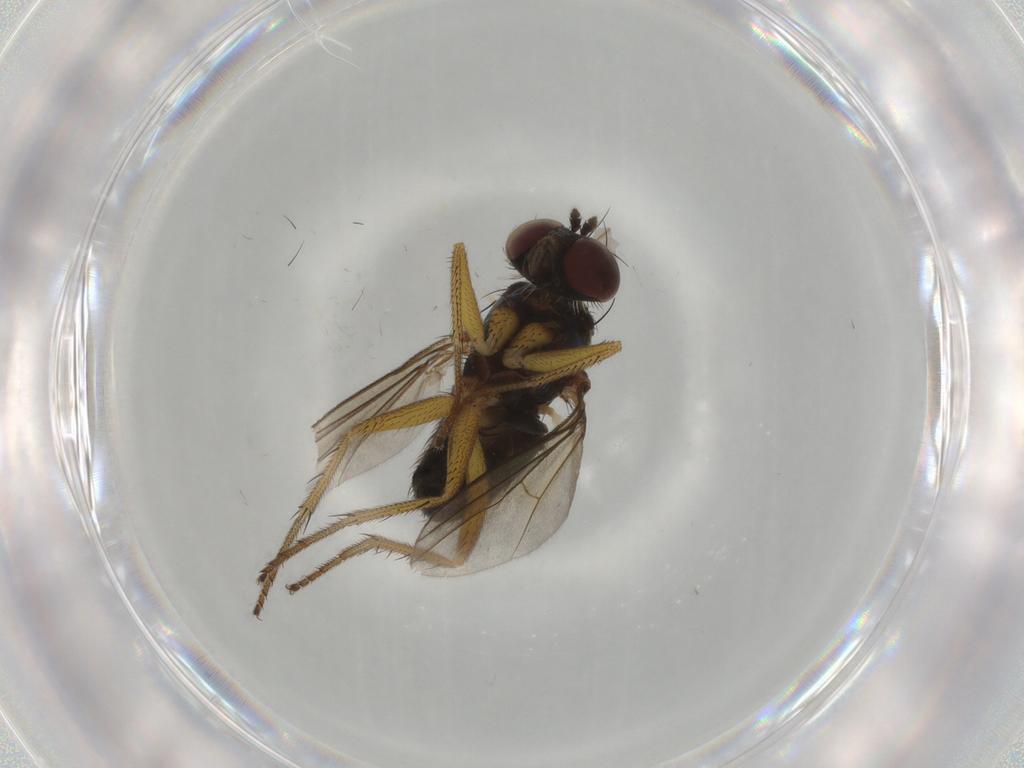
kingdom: Animalia
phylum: Arthropoda
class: Insecta
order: Diptera
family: Dolichopodidae
